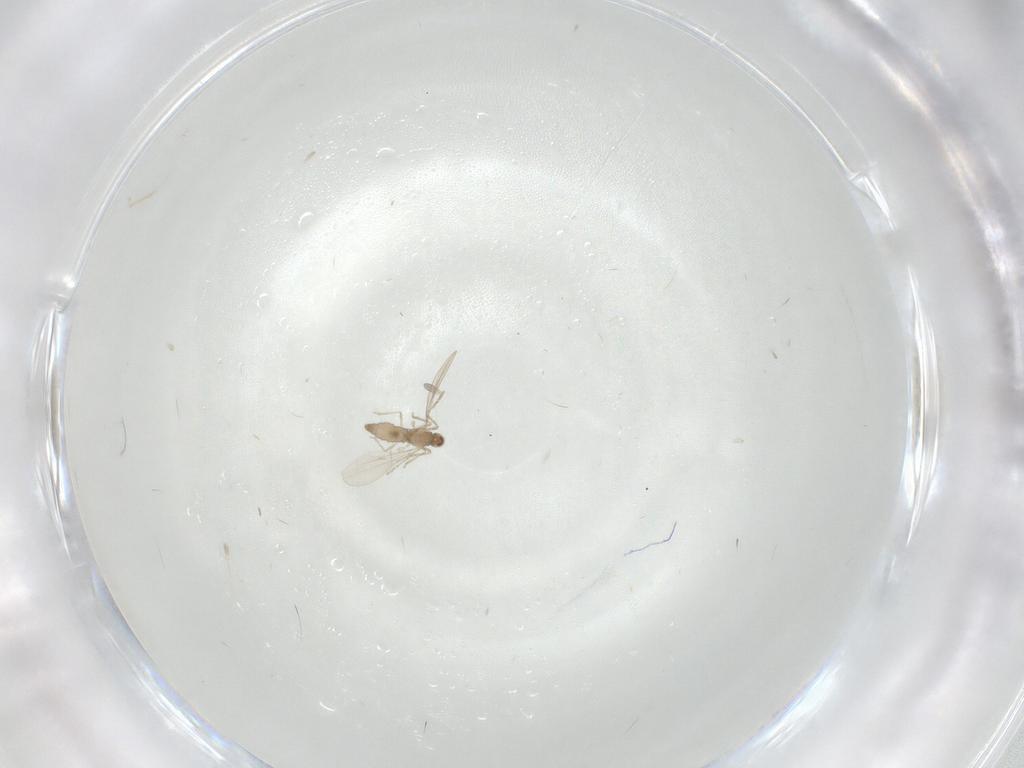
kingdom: Animalia
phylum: Arthropoda
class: Insecta
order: Diptera
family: Cecidomyiidae
